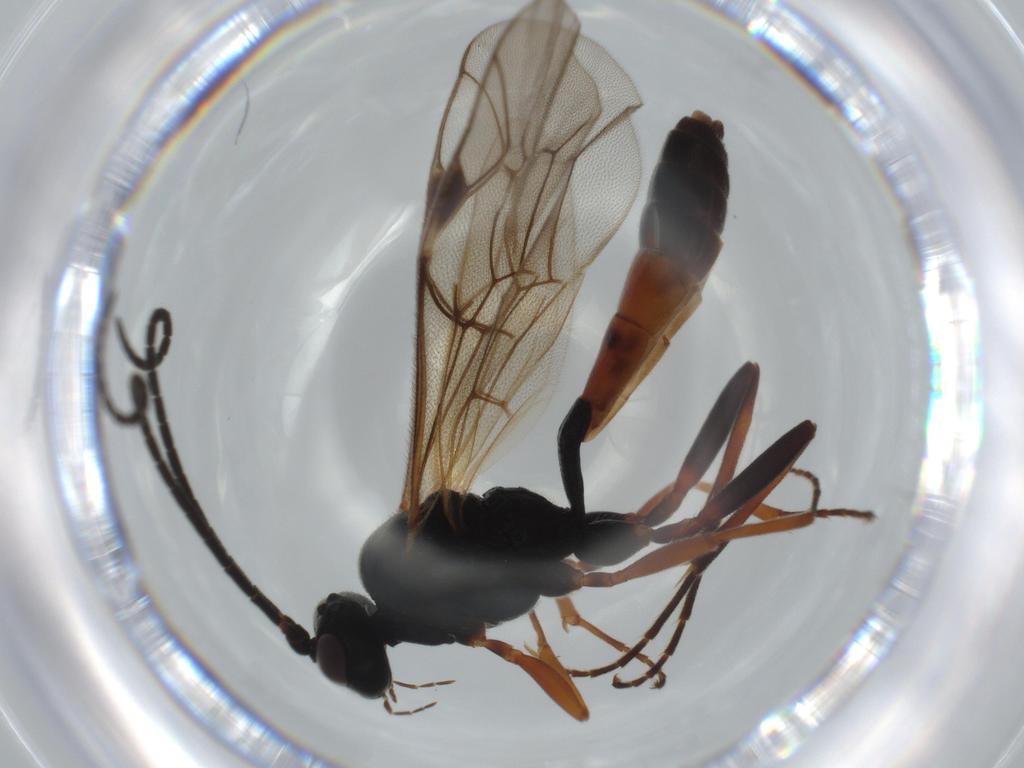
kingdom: Animalia
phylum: Arthropoda
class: Insecta
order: Hymenoptera
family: Ichneumonidae
